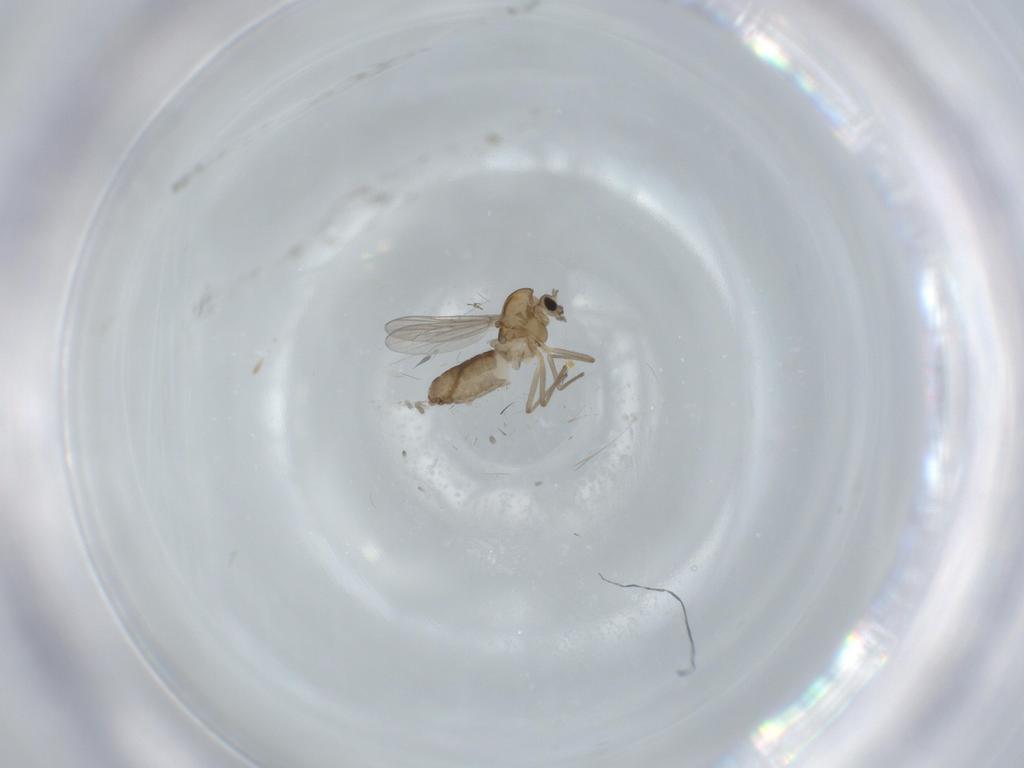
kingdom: Animalia
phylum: Arthropoda
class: Insecta
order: Diptera
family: Chironomidae
